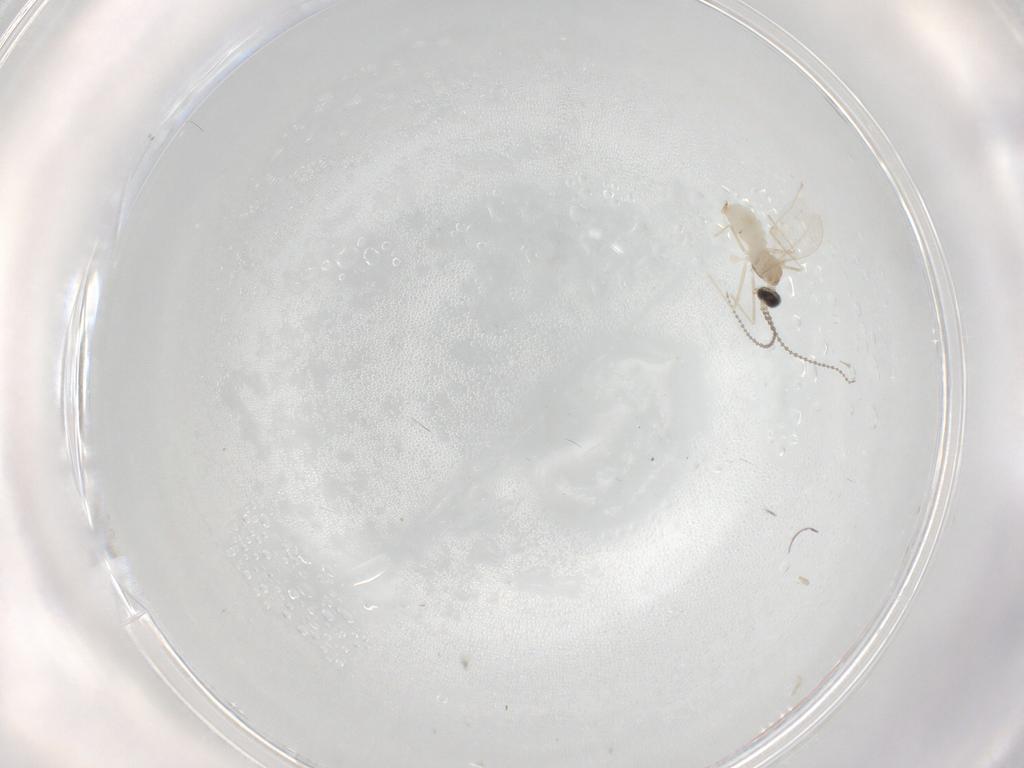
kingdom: Animalia
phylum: Arthropoda
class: Insecta
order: Diptera
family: Cecidomyiidae
